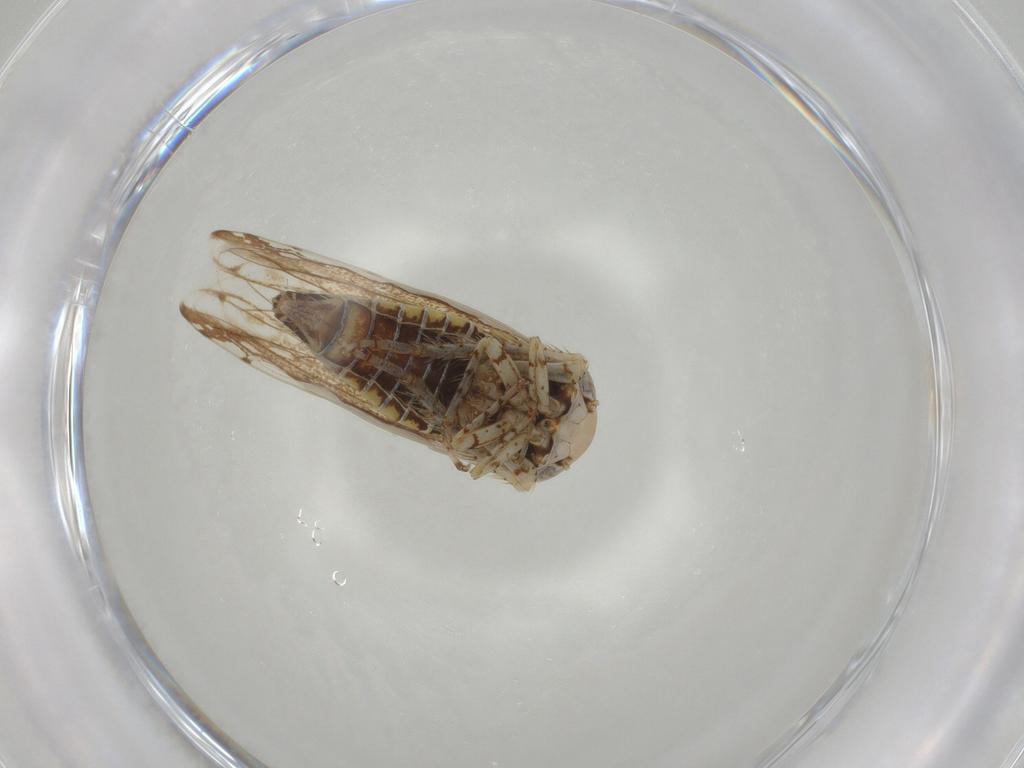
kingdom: Animalia
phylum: Arthropoda
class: Insecta
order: Hemiptera
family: Cicadellidae
